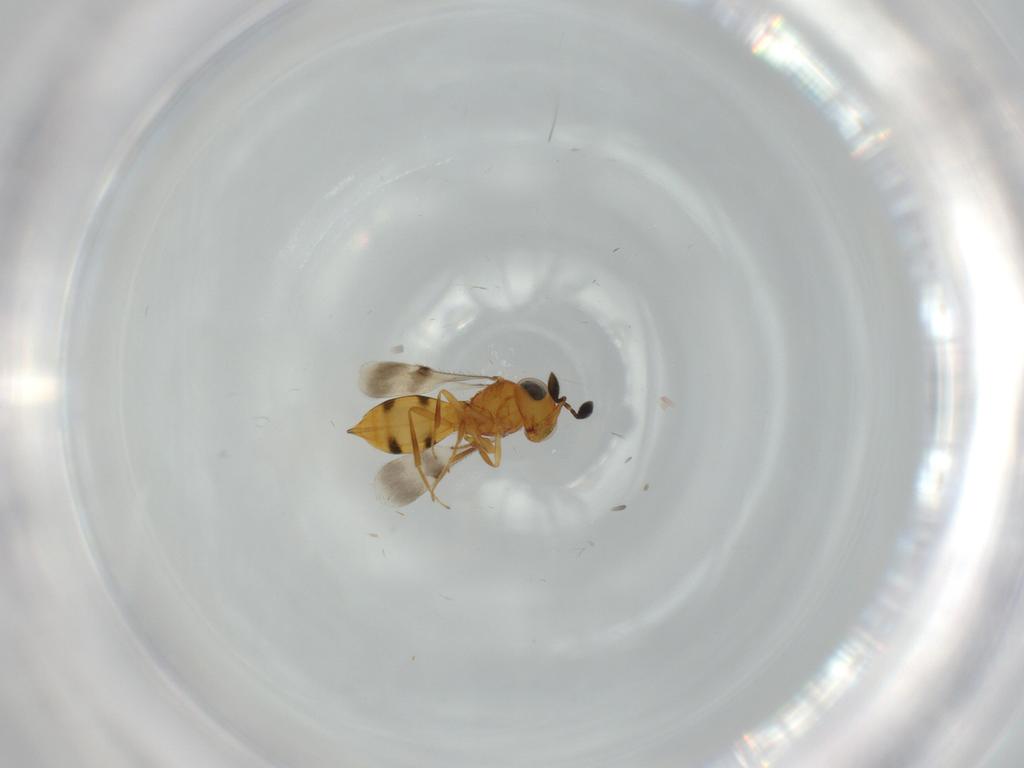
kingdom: Animalia
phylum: Arthropoda
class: Insecta
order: Hymenoptera
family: Scelionidae
